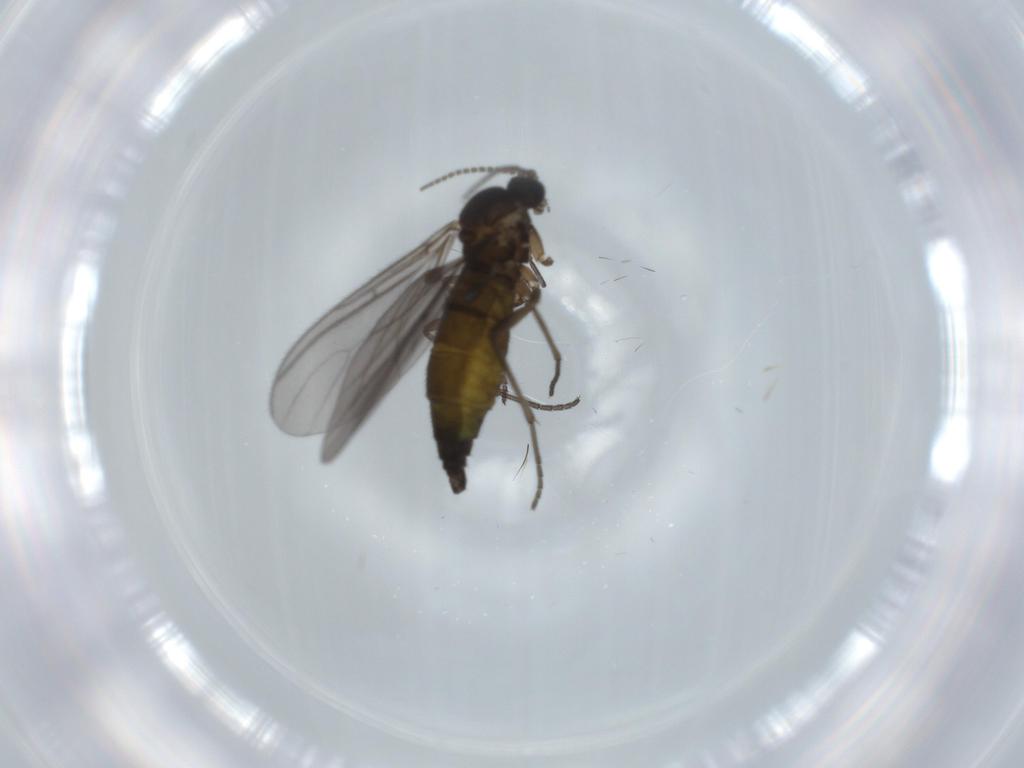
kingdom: Animalia
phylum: Arthropoda
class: Insecta
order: Diptera
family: Sciaridae
